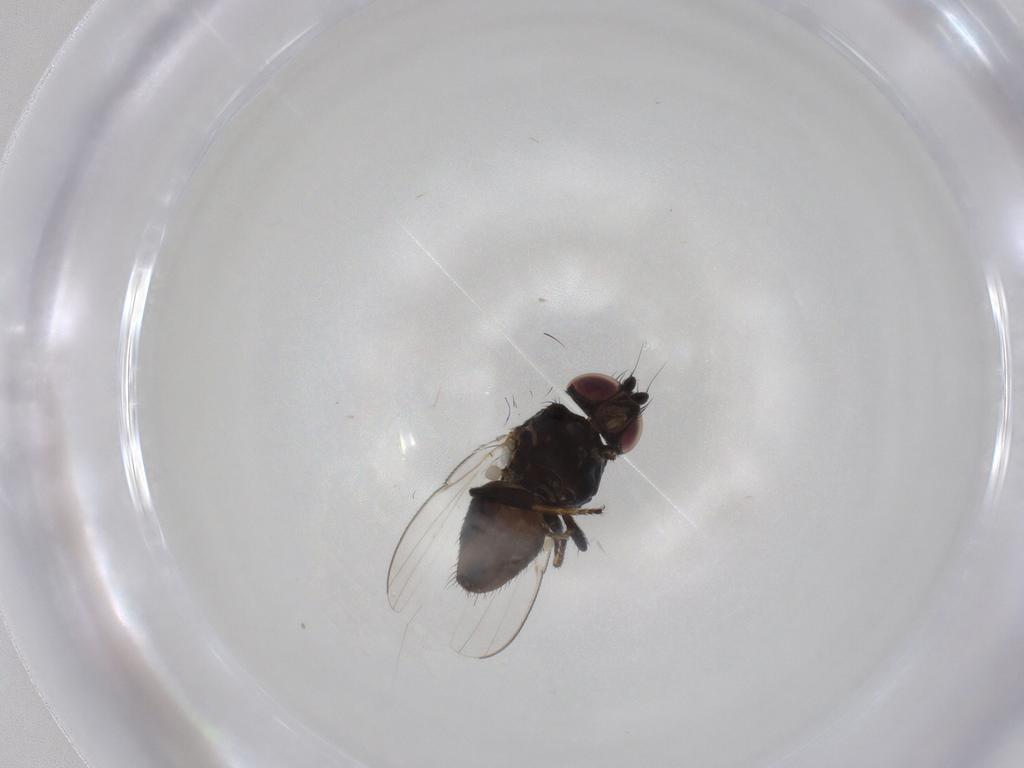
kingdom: Animalia
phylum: Arthropoda
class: Insecta
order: Diptera
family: Milichiidae
